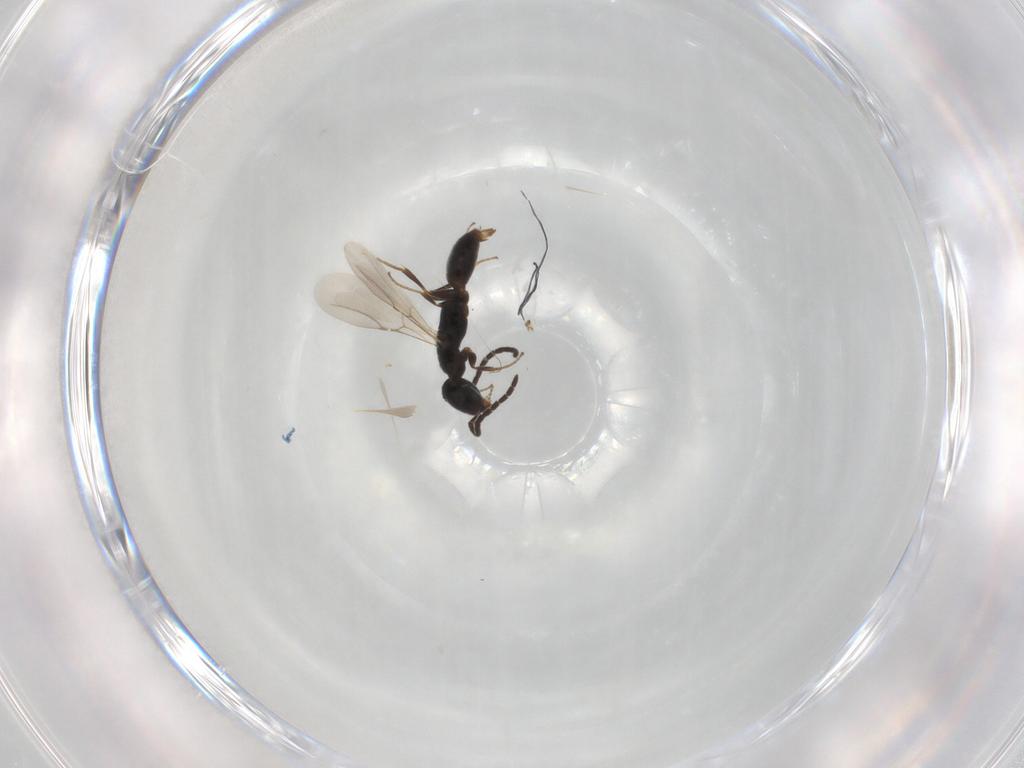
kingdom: Animalia
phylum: Arthropoda
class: Insecta
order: Hymenoptera
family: Bethylidae
